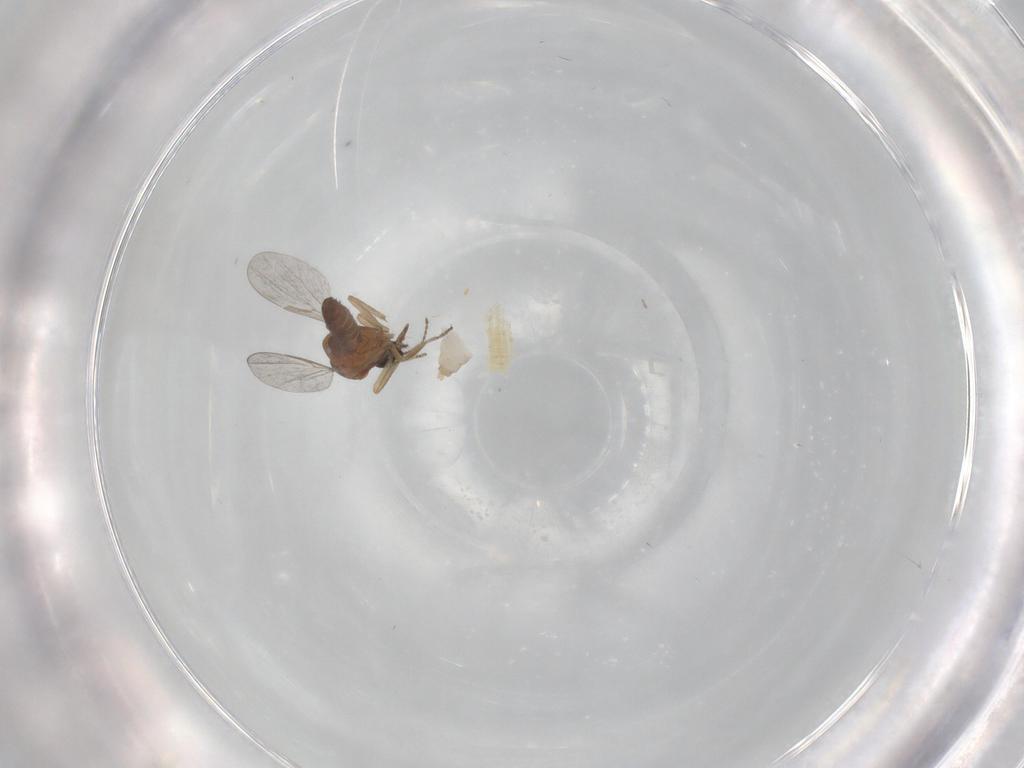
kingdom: Animalia
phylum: Arthropoda
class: Insecta
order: Diptera
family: Cecidomyiidae
